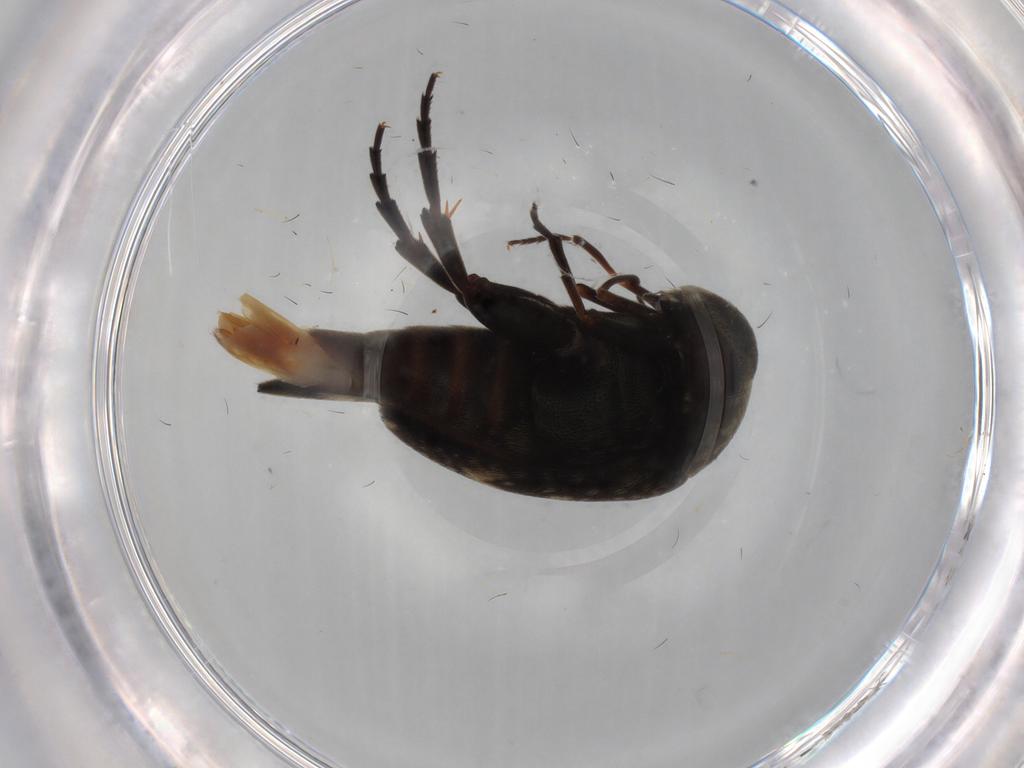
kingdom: Animalia
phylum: Arthropoda
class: Insecta
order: Coleoptera
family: Mordellidae
